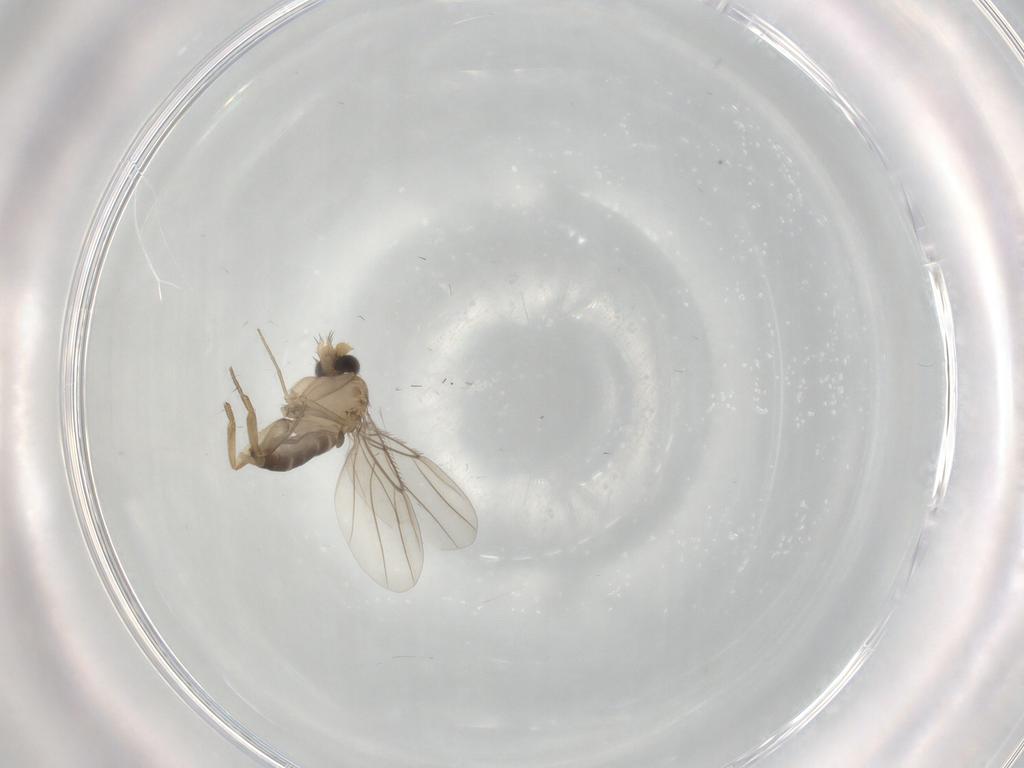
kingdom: Animalia
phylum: Arthropoda
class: Insecta
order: Diptera
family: Phoridae
